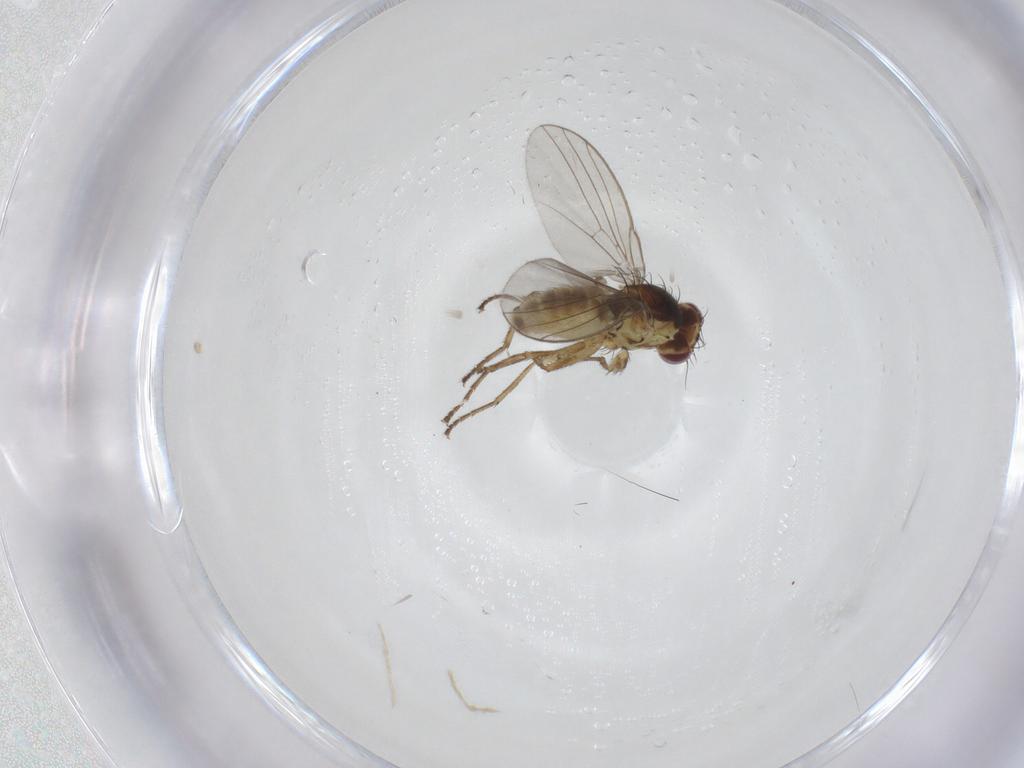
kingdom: Animalia
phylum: Arthropoda
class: Insecta
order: Diptera
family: Agromyzidae
